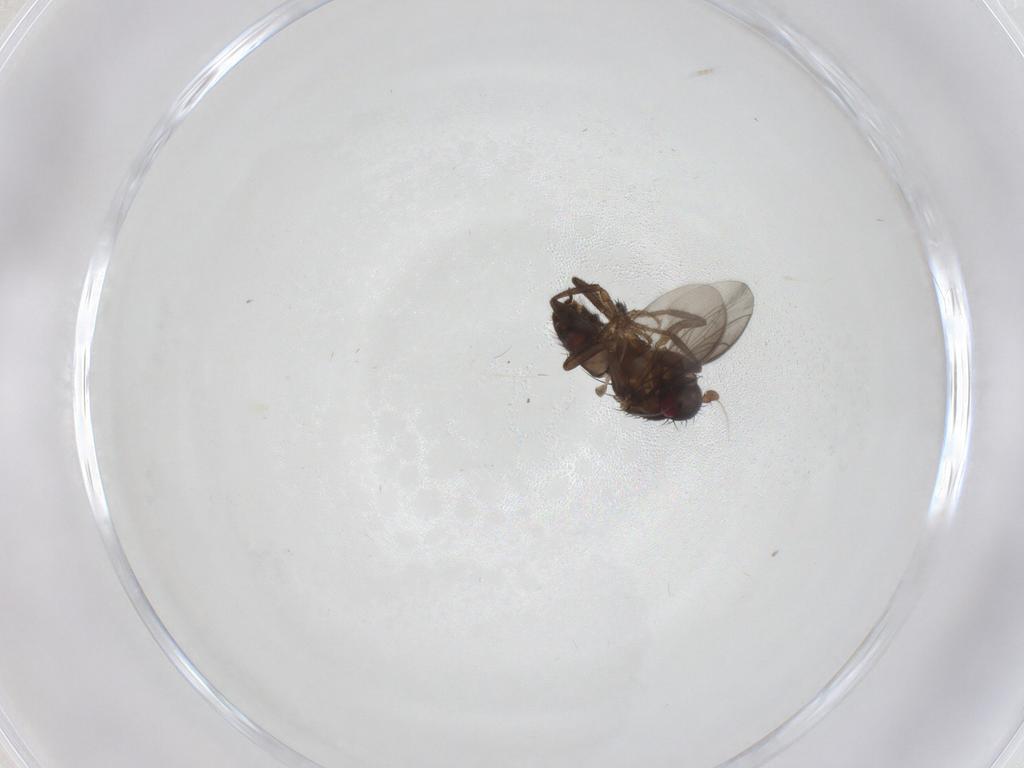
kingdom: Animalia
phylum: Arthropoda
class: Insecta
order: Diptera
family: Sphaeroceridae
